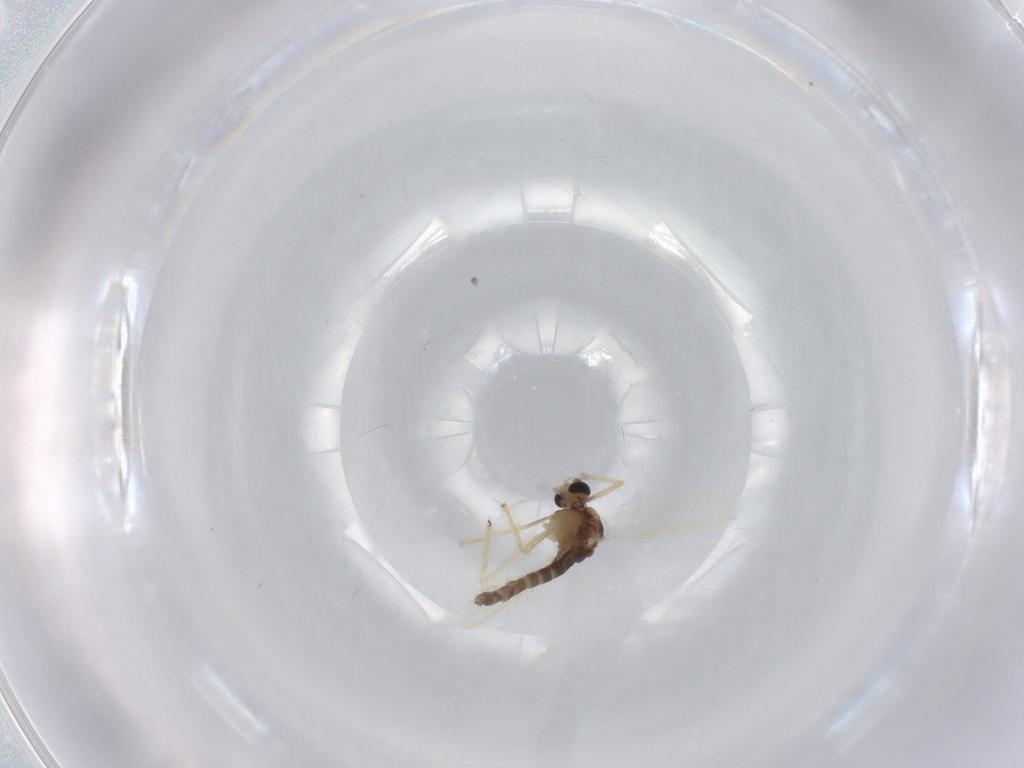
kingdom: Animalia
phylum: Arthropoda
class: Insecta
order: Diptera
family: Chironomidae
